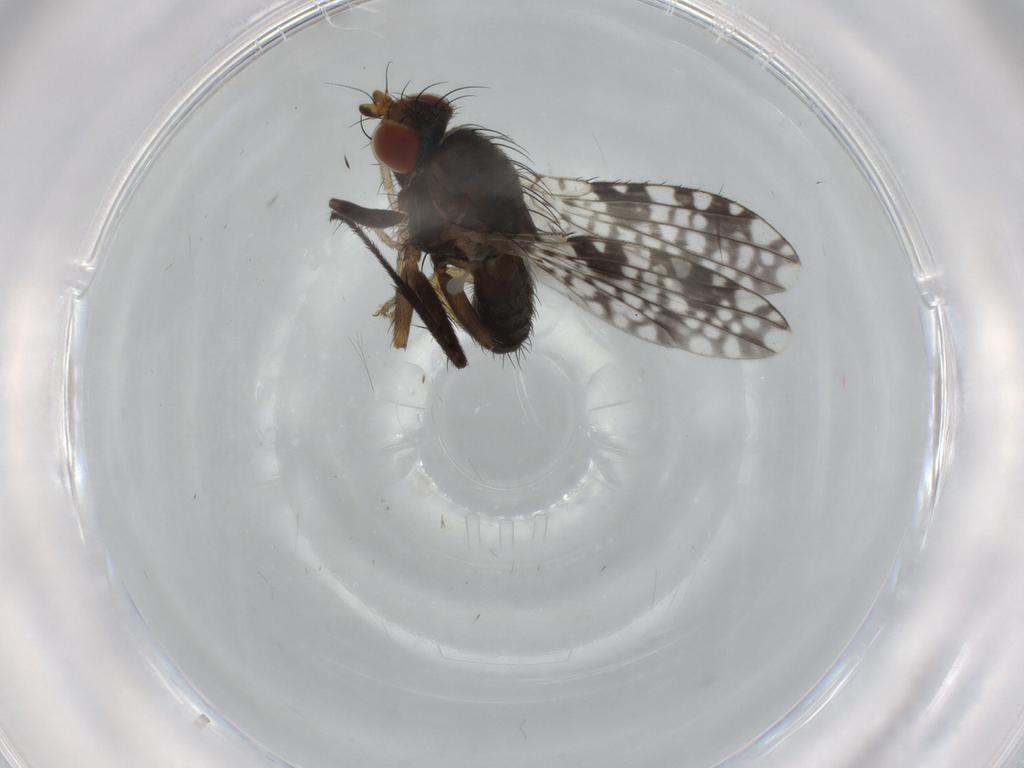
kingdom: Animalia
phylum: Arthropoda
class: Insecta
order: Diptera
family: Tephritidae
